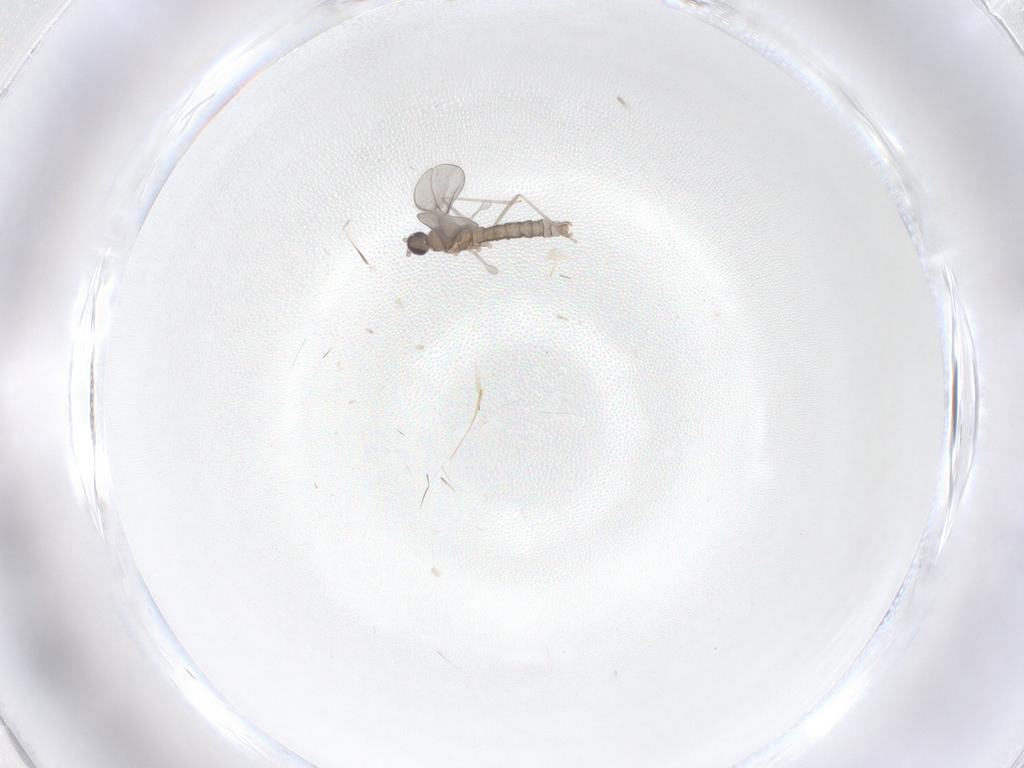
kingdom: Animalia
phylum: Arthropoda
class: Insecta
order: Diptera
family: Cecidomyiidae
